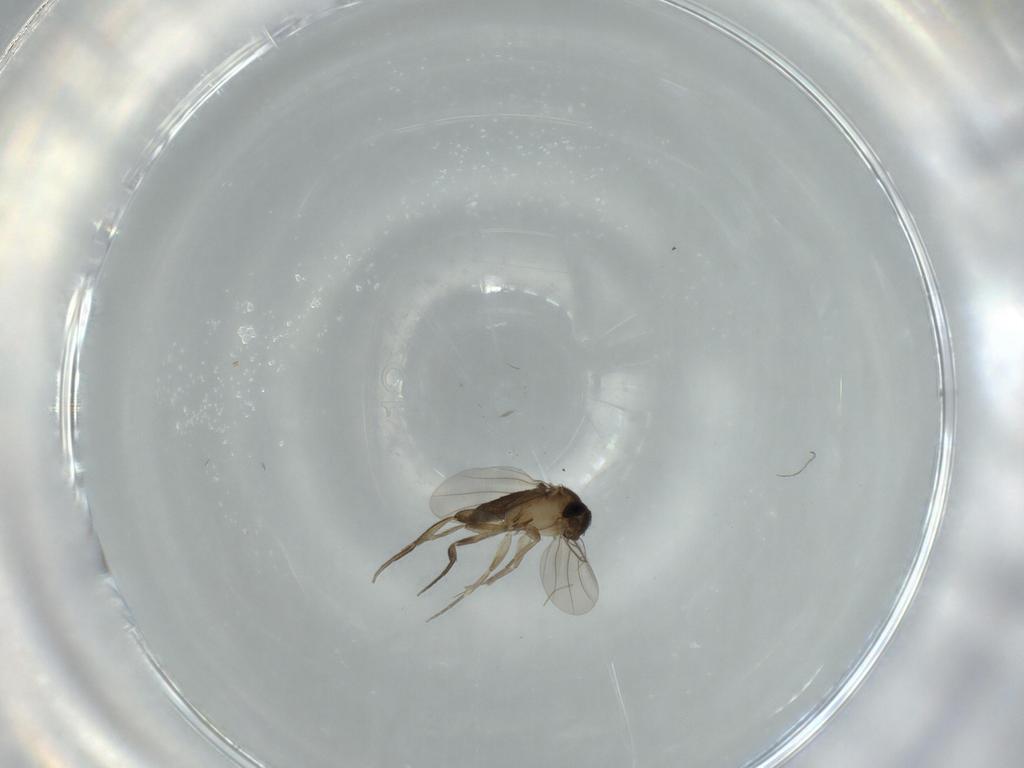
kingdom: Animalia
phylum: Arthropoda
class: Insecta
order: Diptera
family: Phoridae
